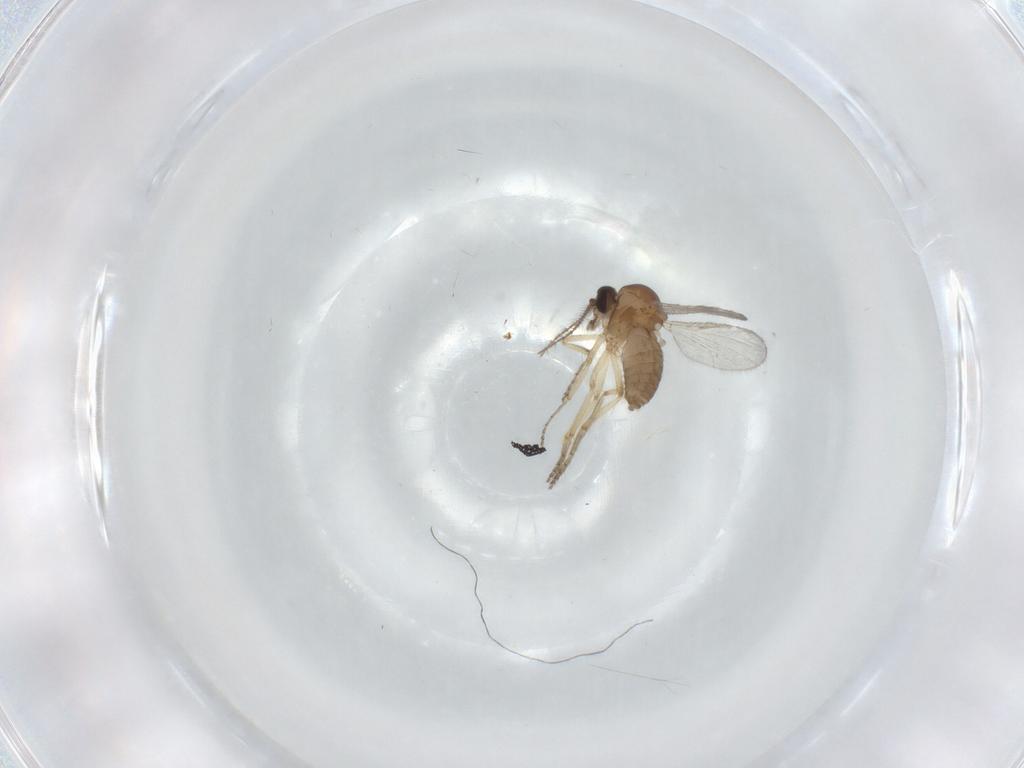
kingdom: Animalia
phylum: Arthropoda
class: Insecta
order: Diptera
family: Ceratopogonidae
